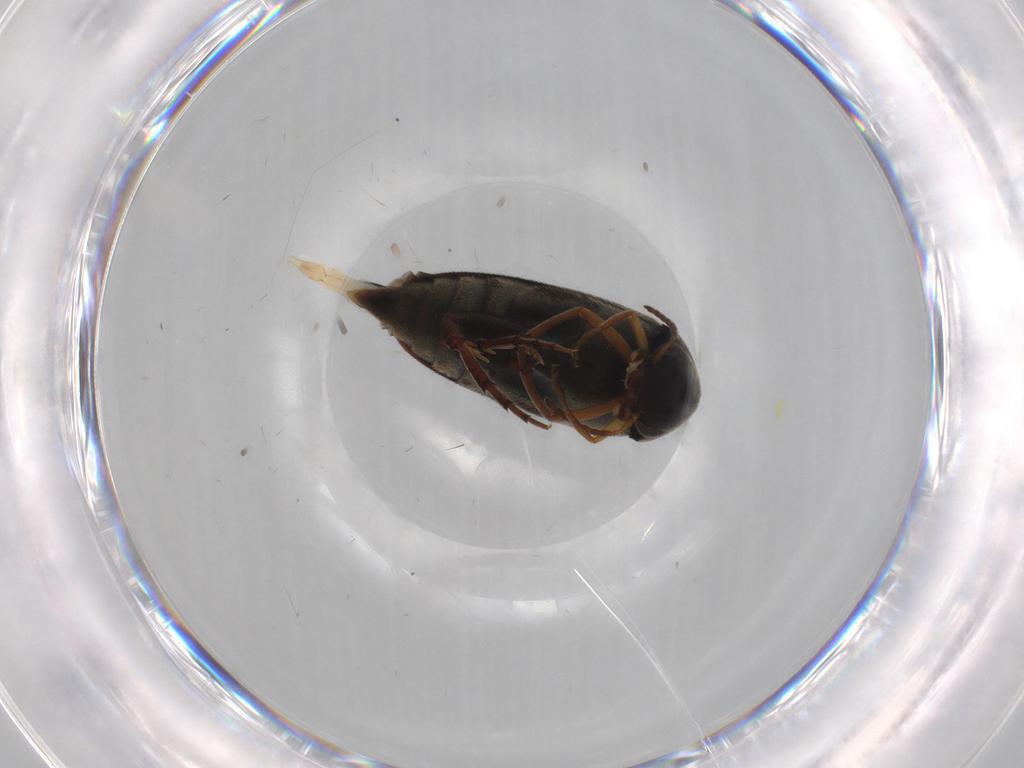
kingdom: Animalia
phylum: Arthropoda
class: Insecta
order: Coleoptera
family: Mordellidae
